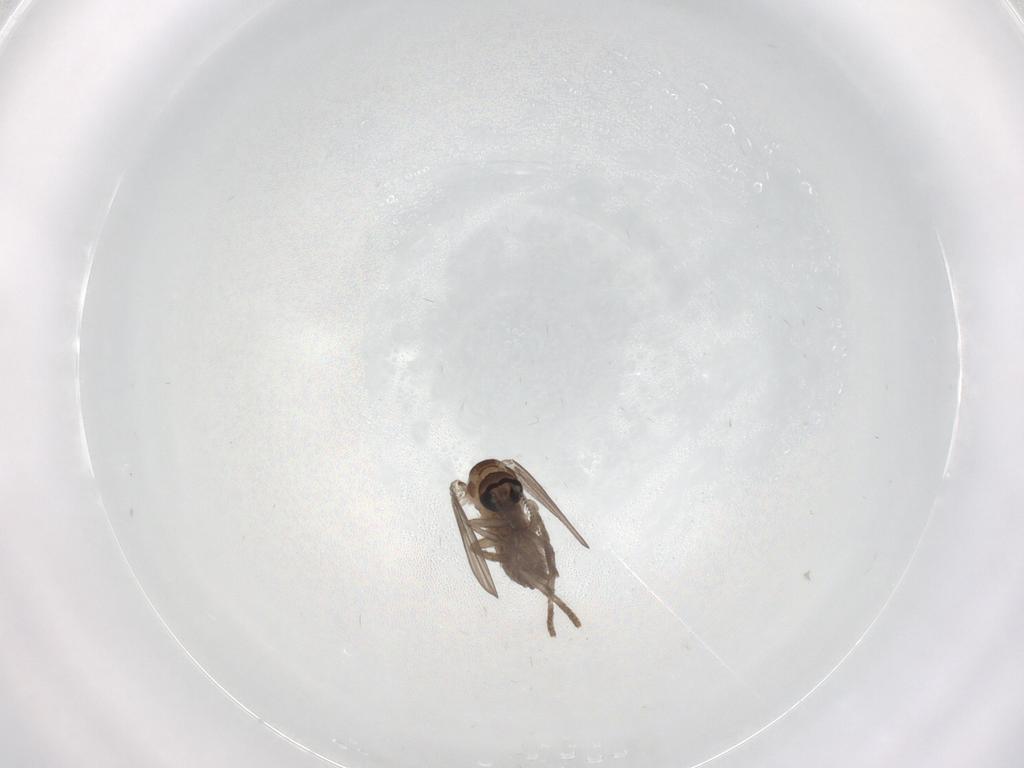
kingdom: Animalia
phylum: Arthropoda
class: Insecta
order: Diptera
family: Psychodidae
